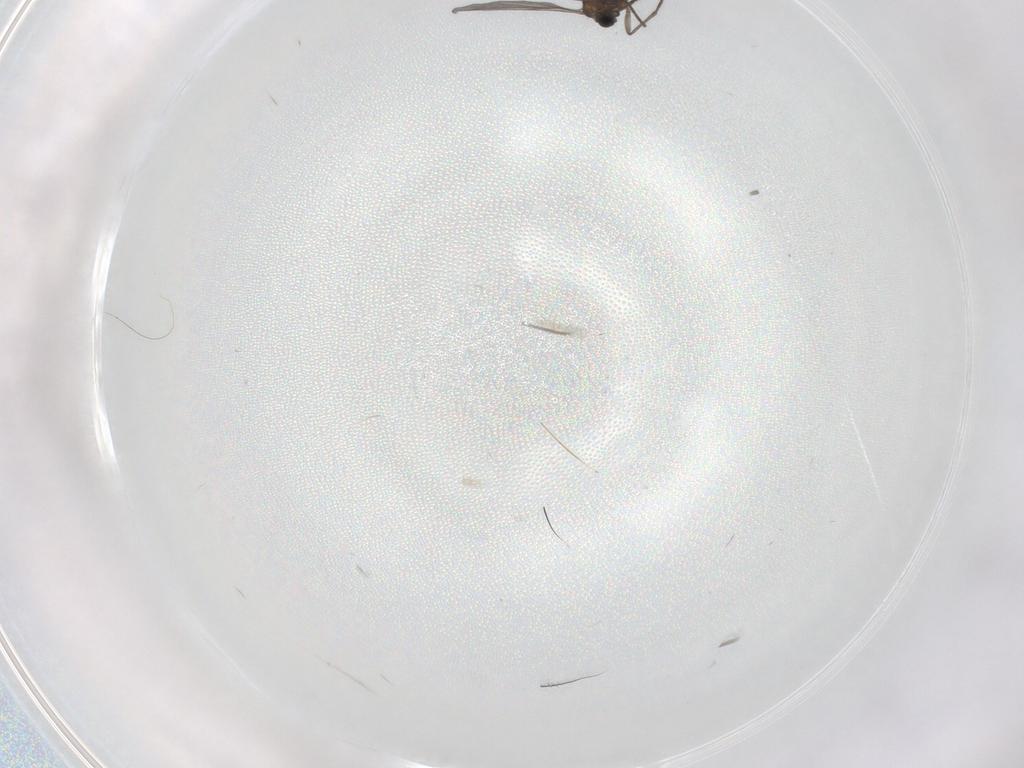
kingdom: Animalia
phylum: Arthropoda
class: Insecta
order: Diptera
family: Sciaridae
